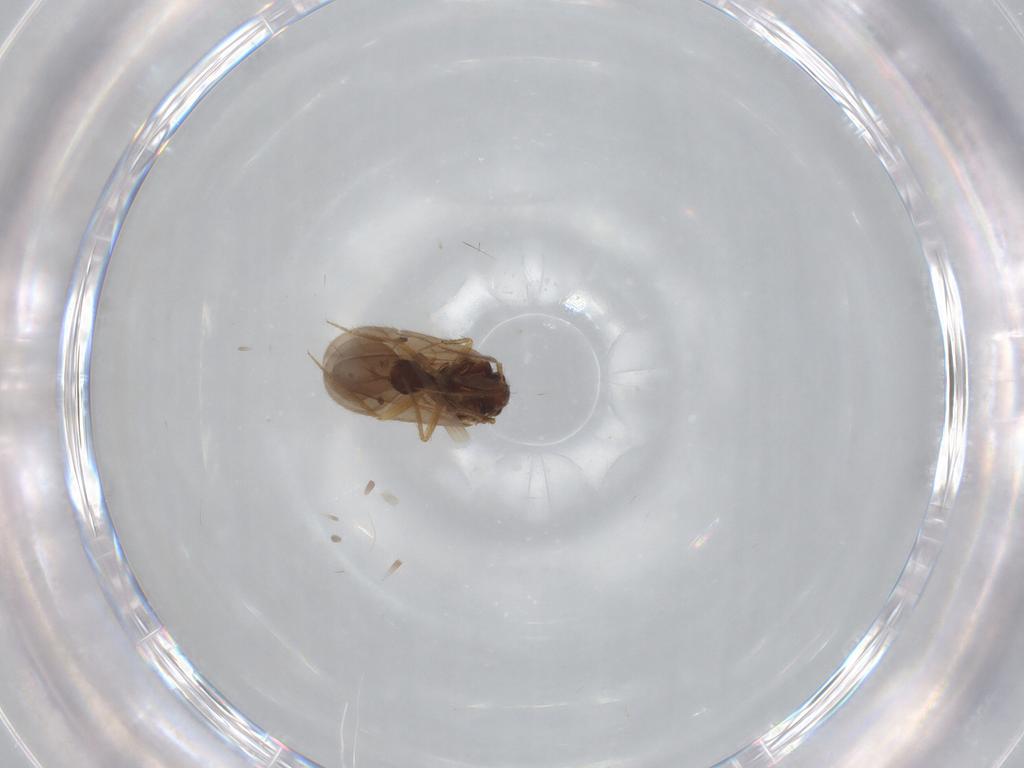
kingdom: Animalia
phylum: Arthropoda
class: Insecta
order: Hemiptera
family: Ceratocombidae
